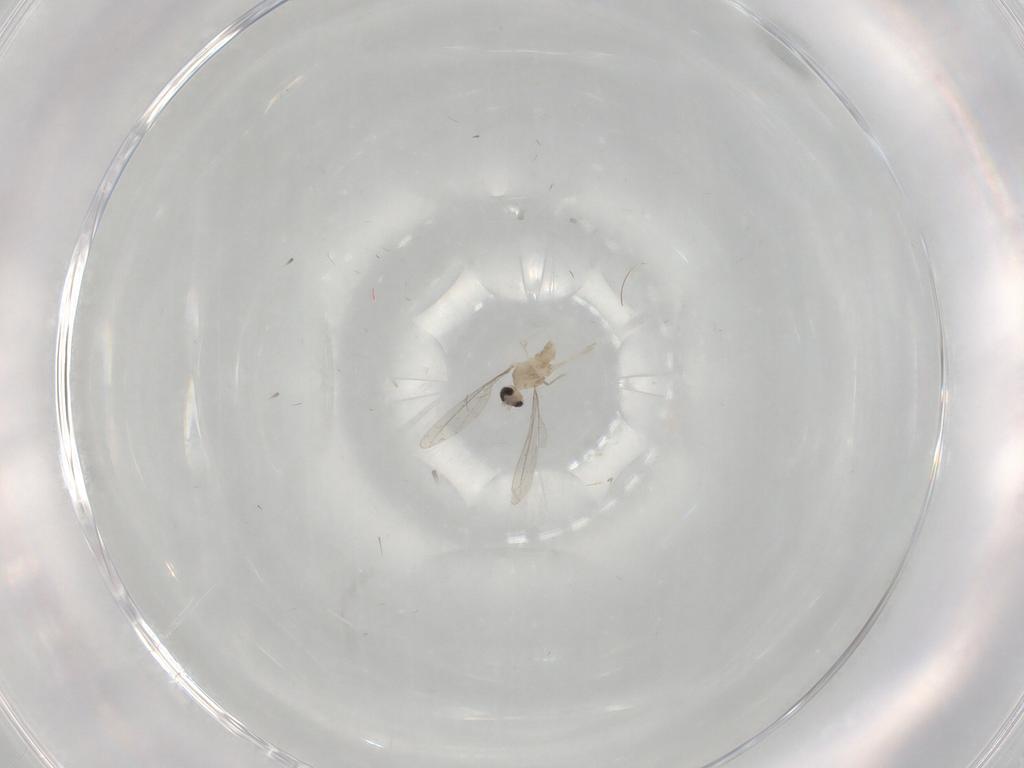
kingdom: Animalia
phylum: Arthropoda
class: Insecta
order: Diptera
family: Cecidomyiidae
